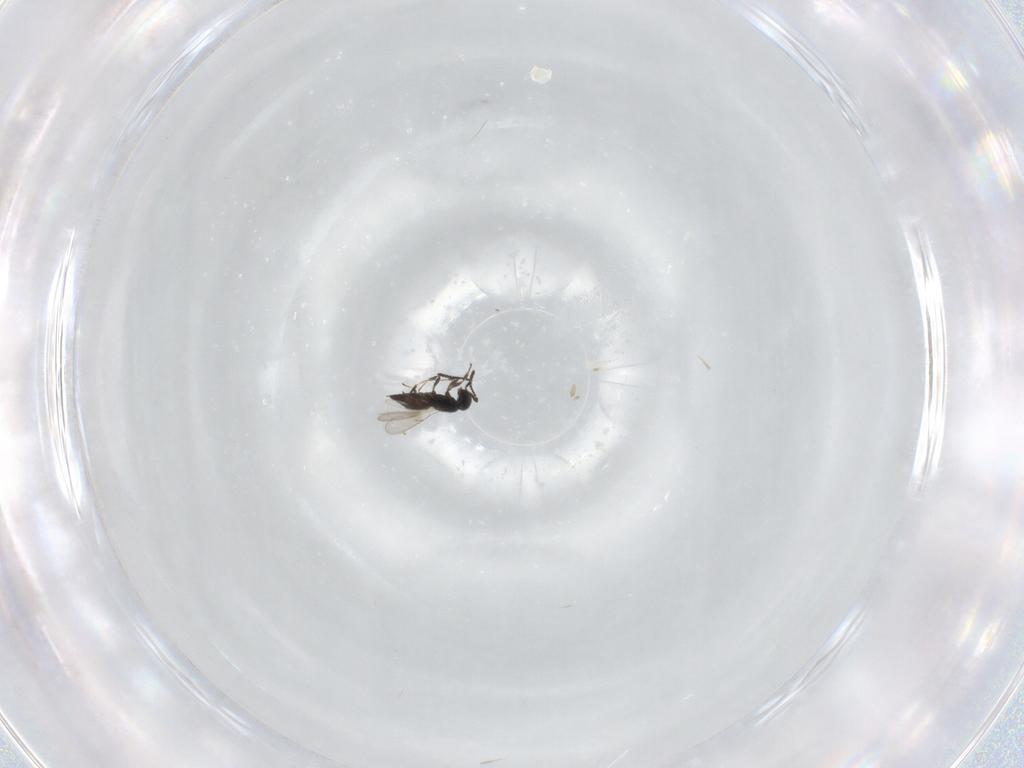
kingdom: Animalia
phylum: Arthropoda
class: Insecta
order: Hymenoptera
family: Scelionidae
